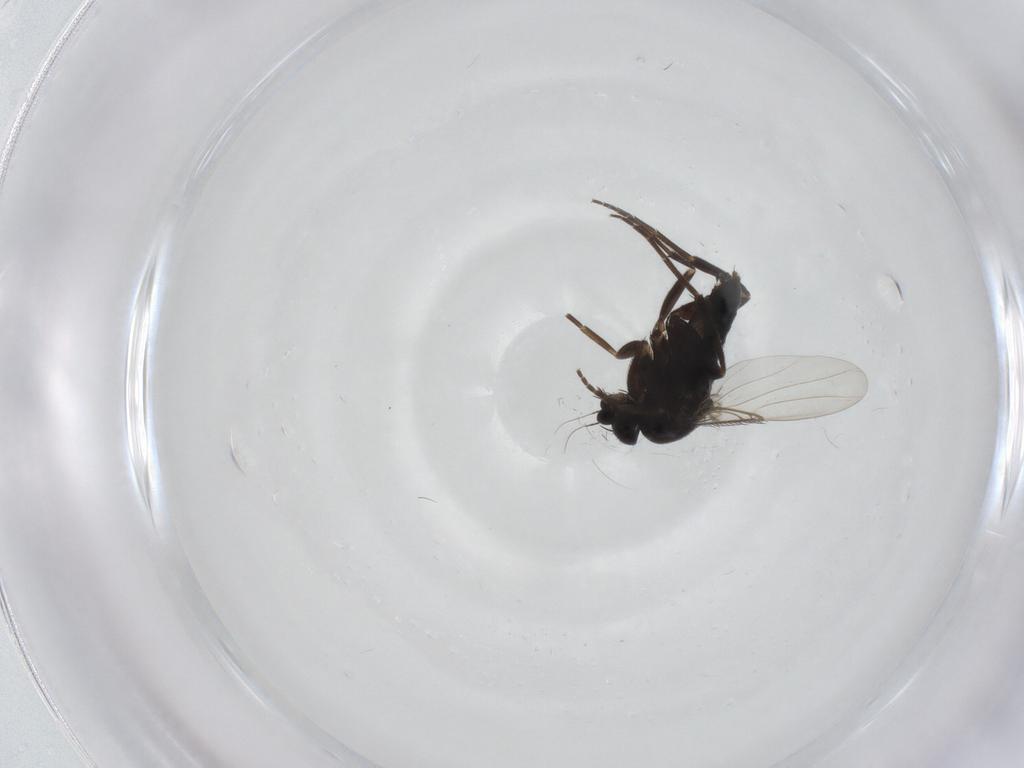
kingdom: Animalia
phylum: Arthropoda
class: Insecta
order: Diptera
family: Phoridae
